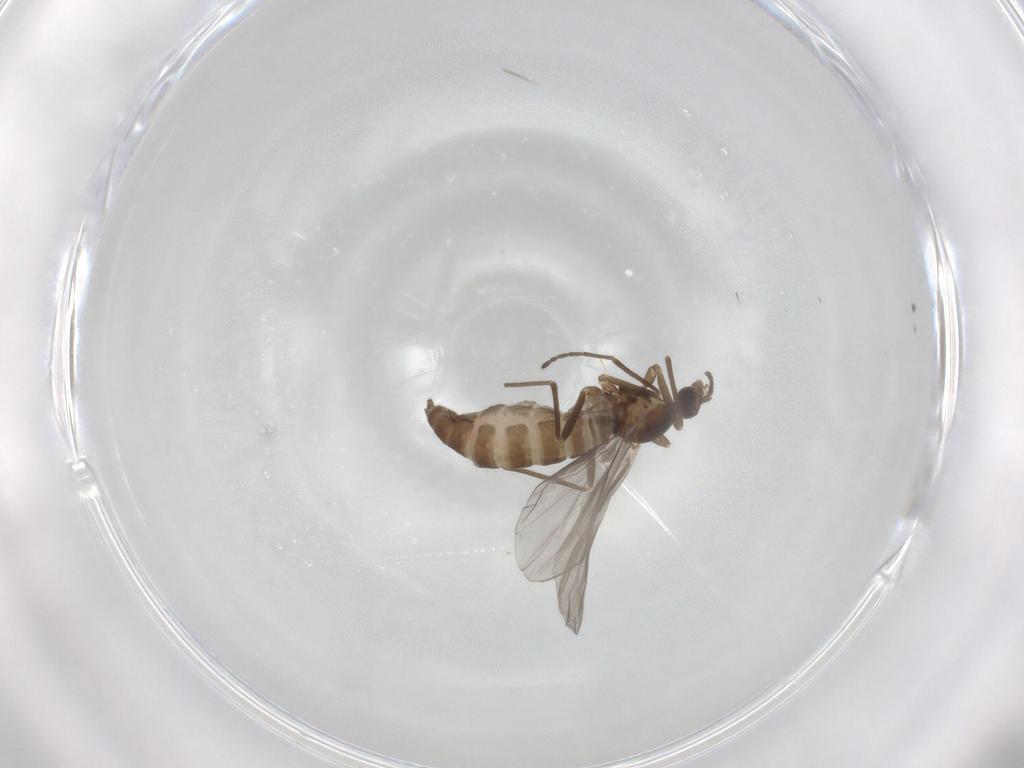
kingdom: Animalia
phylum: Arthropoda
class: Insecta
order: Diptera
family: Cecidomyiidae
